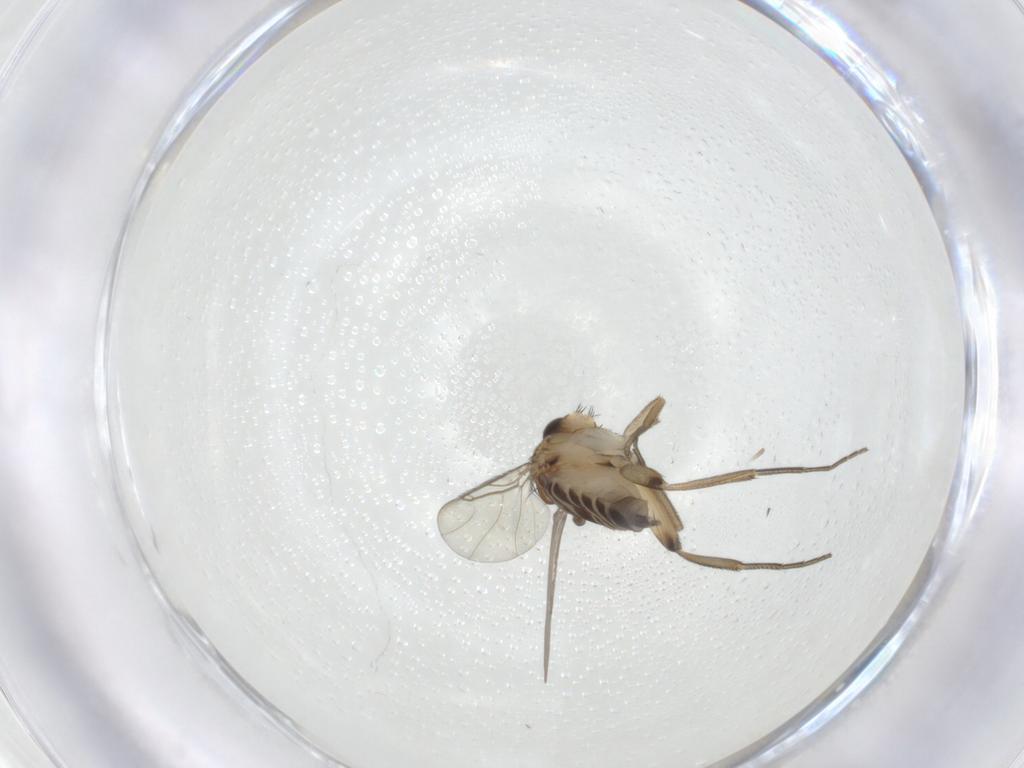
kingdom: Animalia
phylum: Arthropoda
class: Insecta
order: Diptera
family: Phoridae
